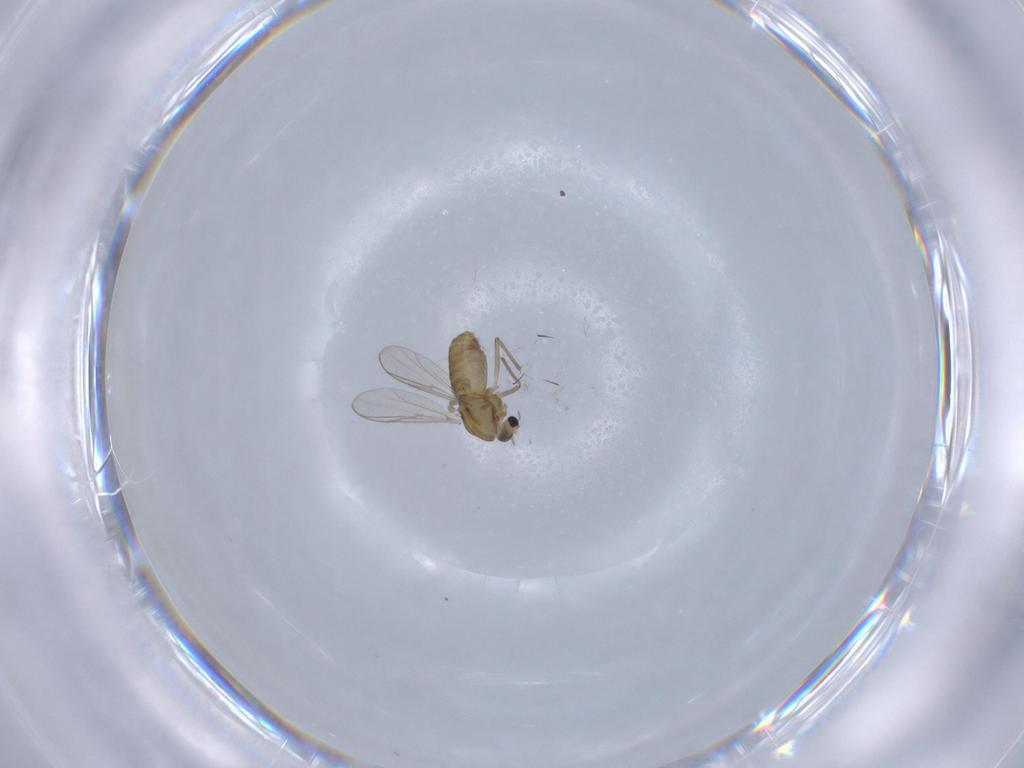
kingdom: Animalia
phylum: Arthropoda
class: Insecta
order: Diptera
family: Chironomidae
